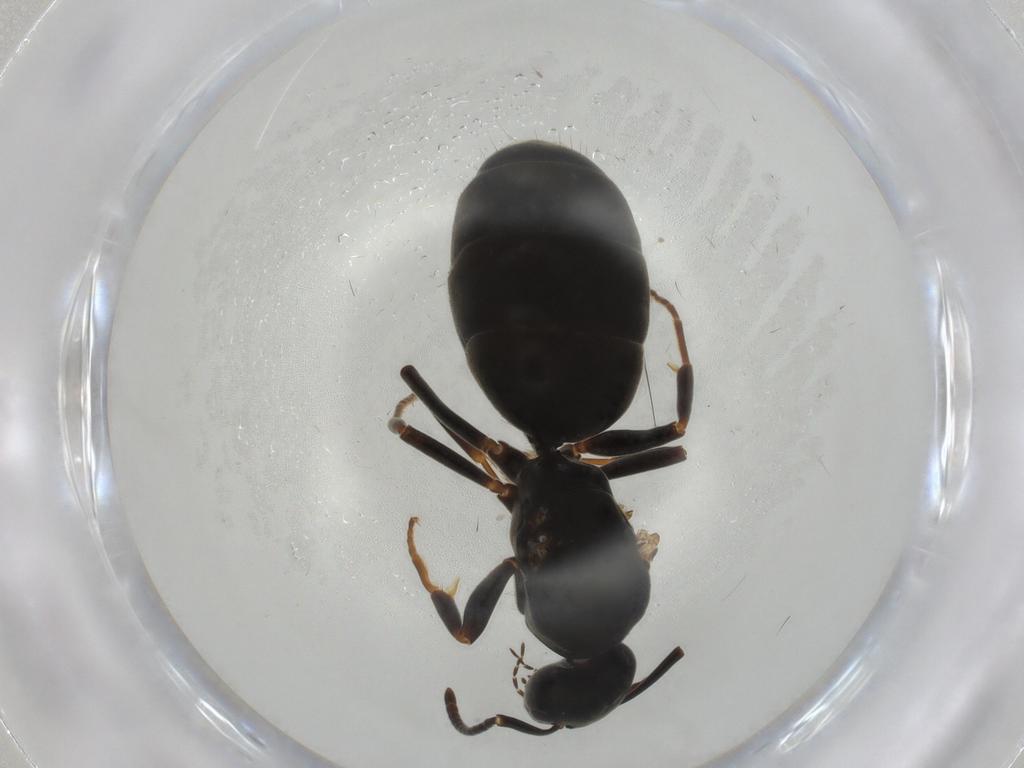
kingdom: Animalia
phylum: Arthropoda
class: Insecta
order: Hymenoptera
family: Formicidae
